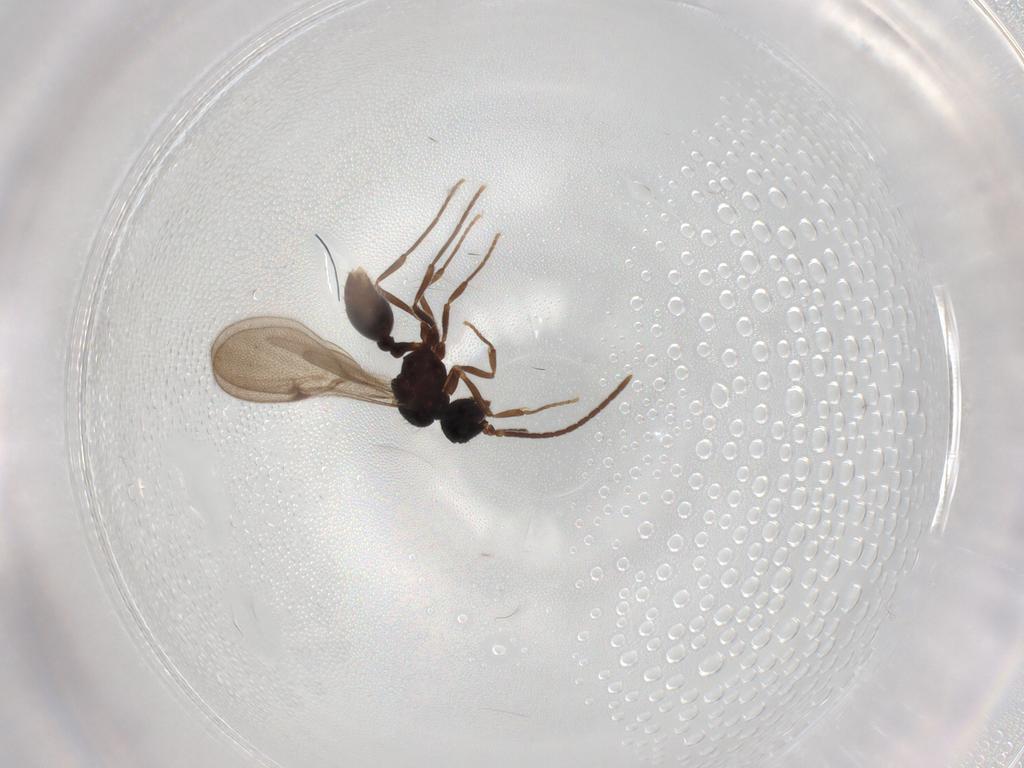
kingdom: Animalia
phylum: Arthropoda
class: Insecta
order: Hymenoptera
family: Formicidae
